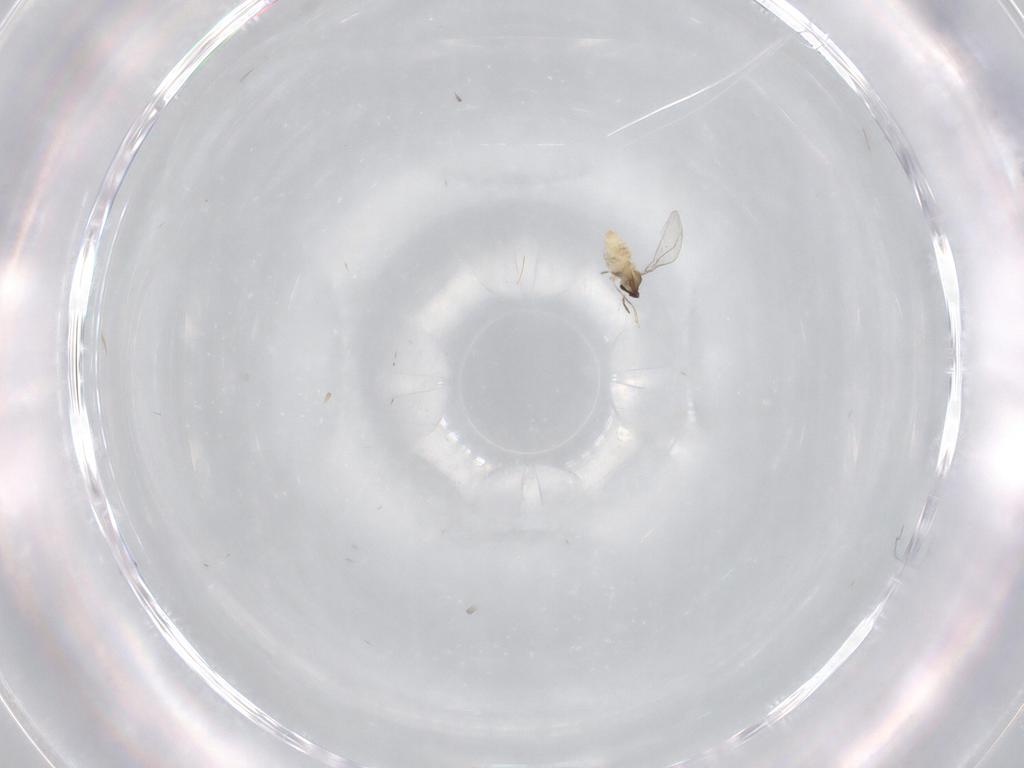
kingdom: Animalia
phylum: Arthropoda
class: Insecta
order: Diptera
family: Cecidomyiidae
